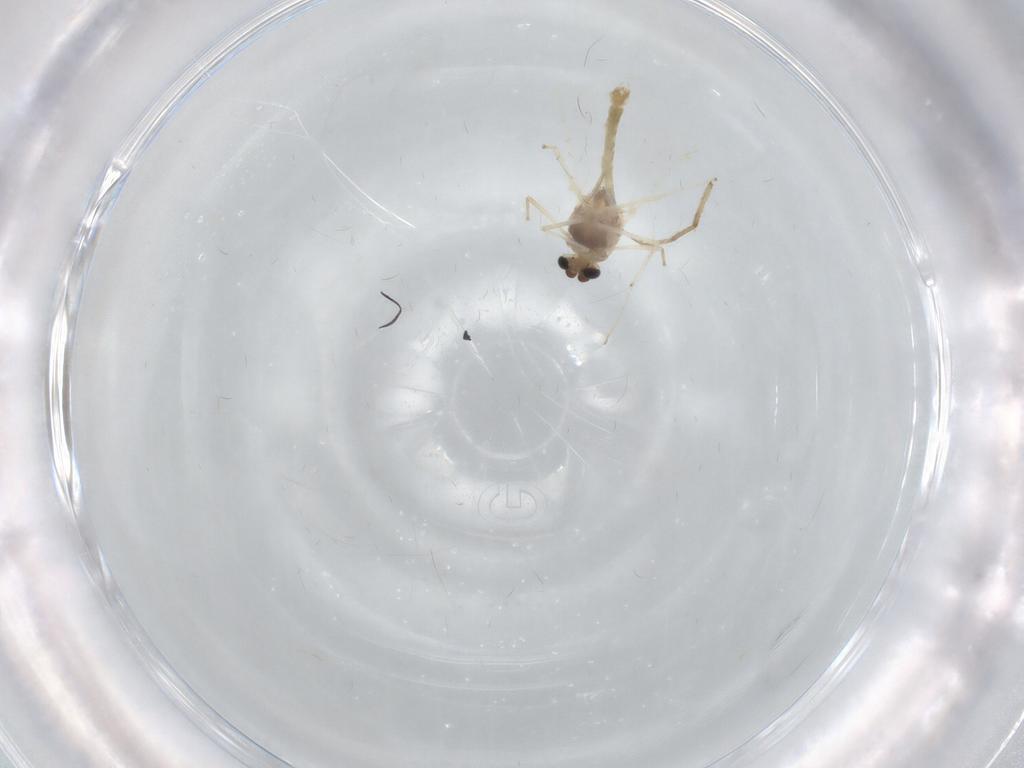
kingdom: Animalia
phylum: Arthropoda
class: Insecta
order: Diptera
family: Chironomidae
